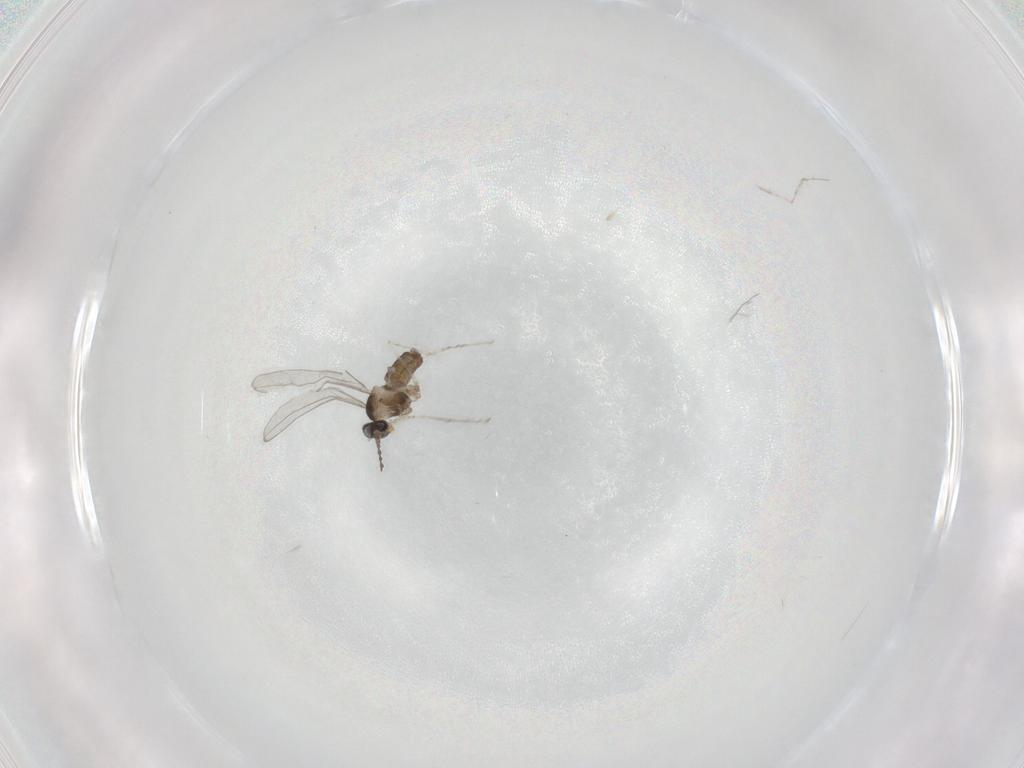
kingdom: Animalia
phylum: Arthropoda
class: Insecta
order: Diptera
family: Cecidomyiidae
